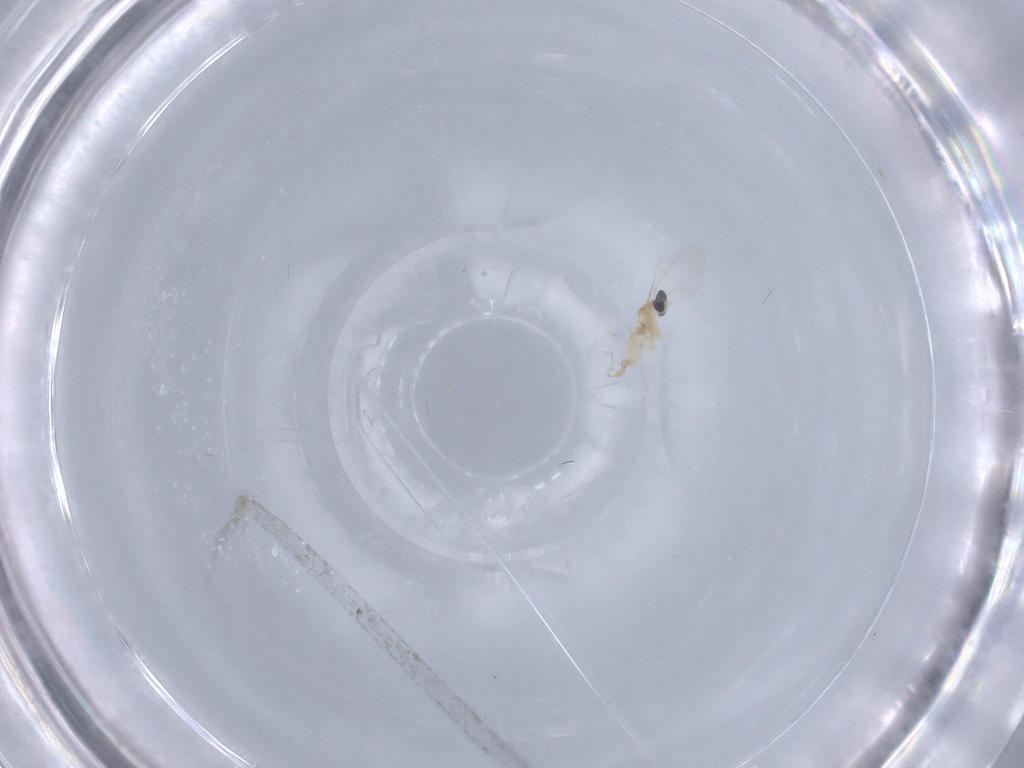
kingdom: Animalia
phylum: Arthropoda
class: Insecta
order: Diptera
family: Cecidomyiidae
